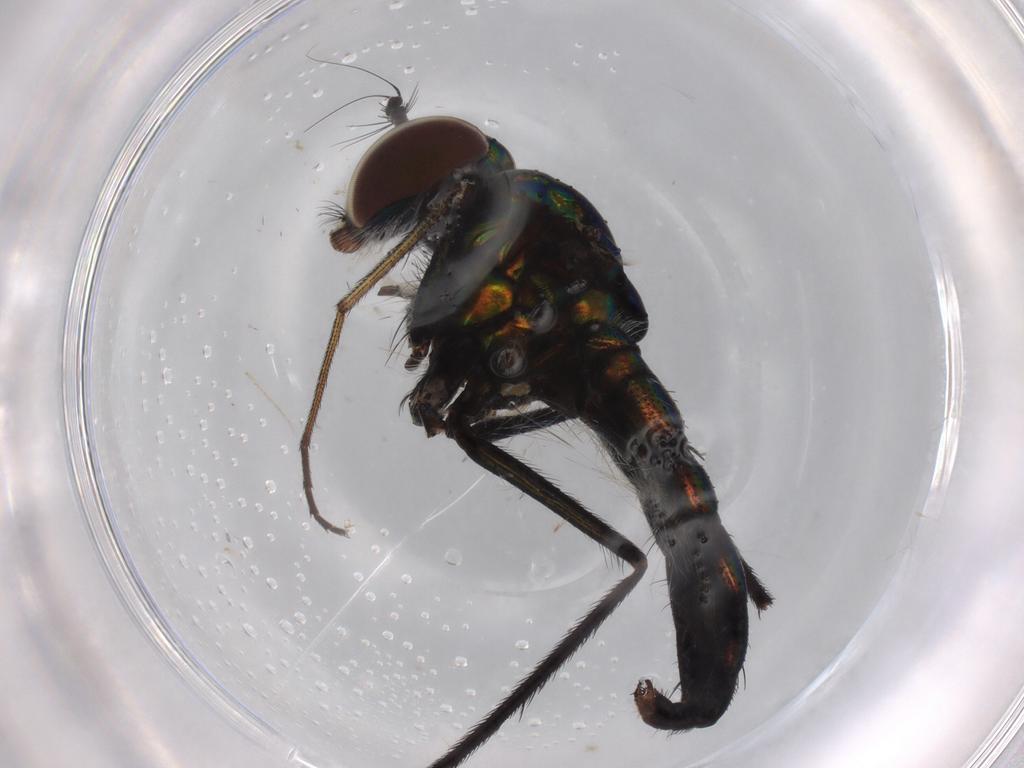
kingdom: Animalia
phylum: Arthropoda
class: Insecta
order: Diptera
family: Dolichopodidae
